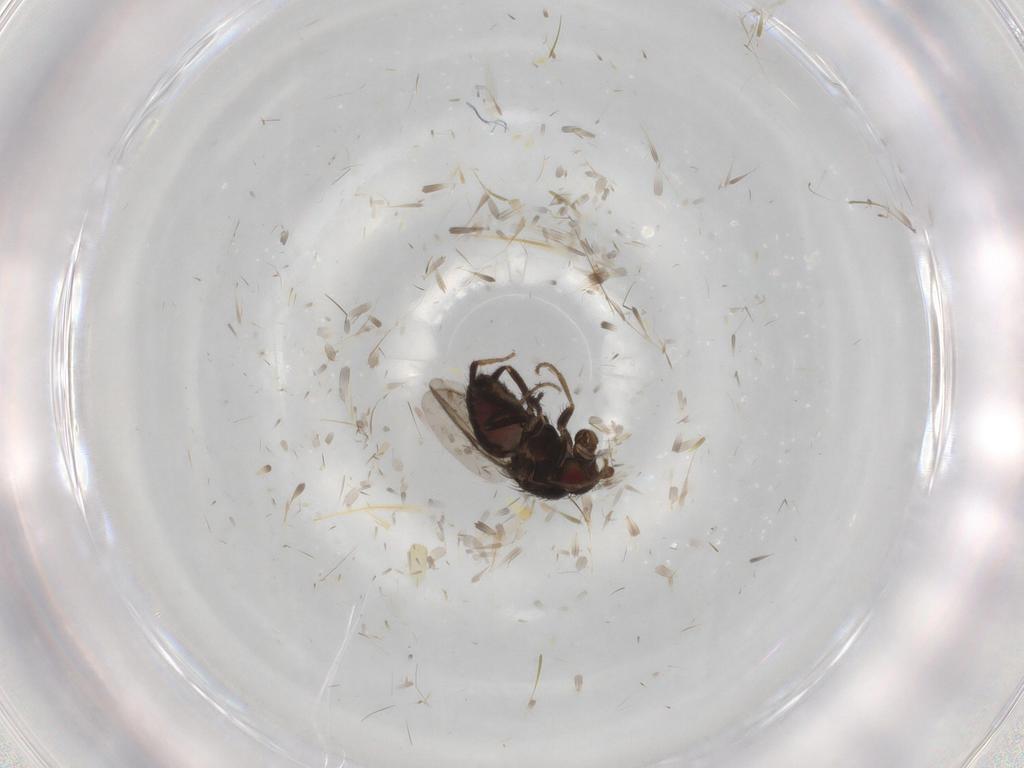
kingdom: Animalia
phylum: Arthropoda
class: Insecta
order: Diptera
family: Sphaeroceridae
